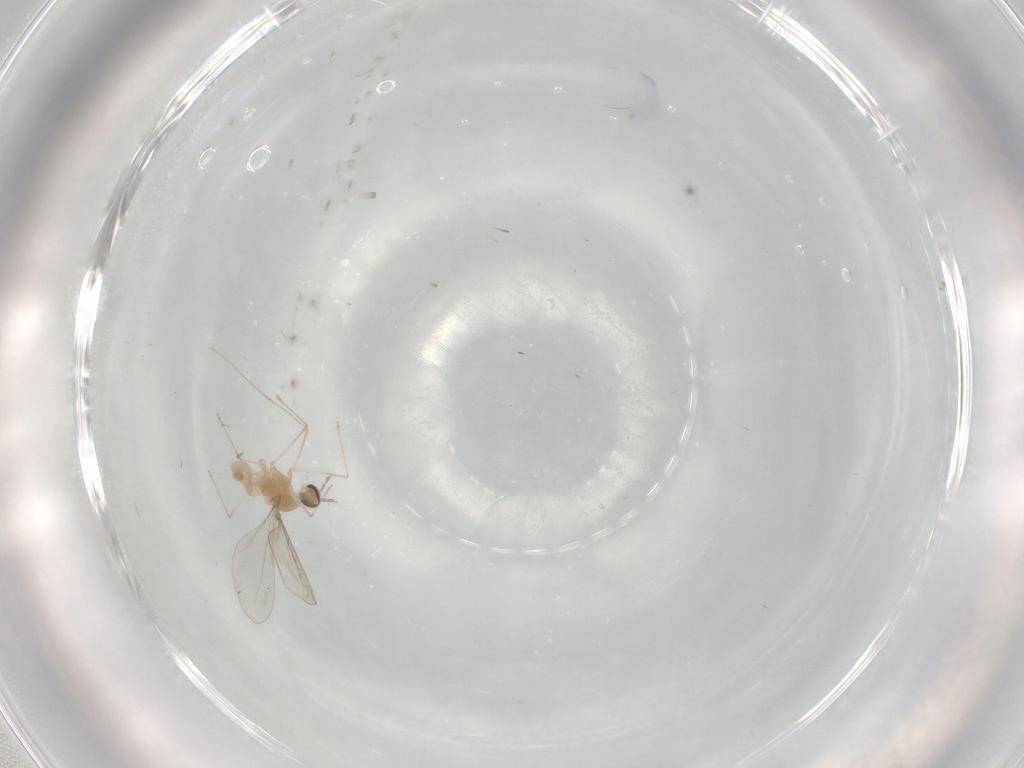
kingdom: Animalia
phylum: Arthropoda
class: Insecta
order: Diptera
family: Cecidomyiidae
